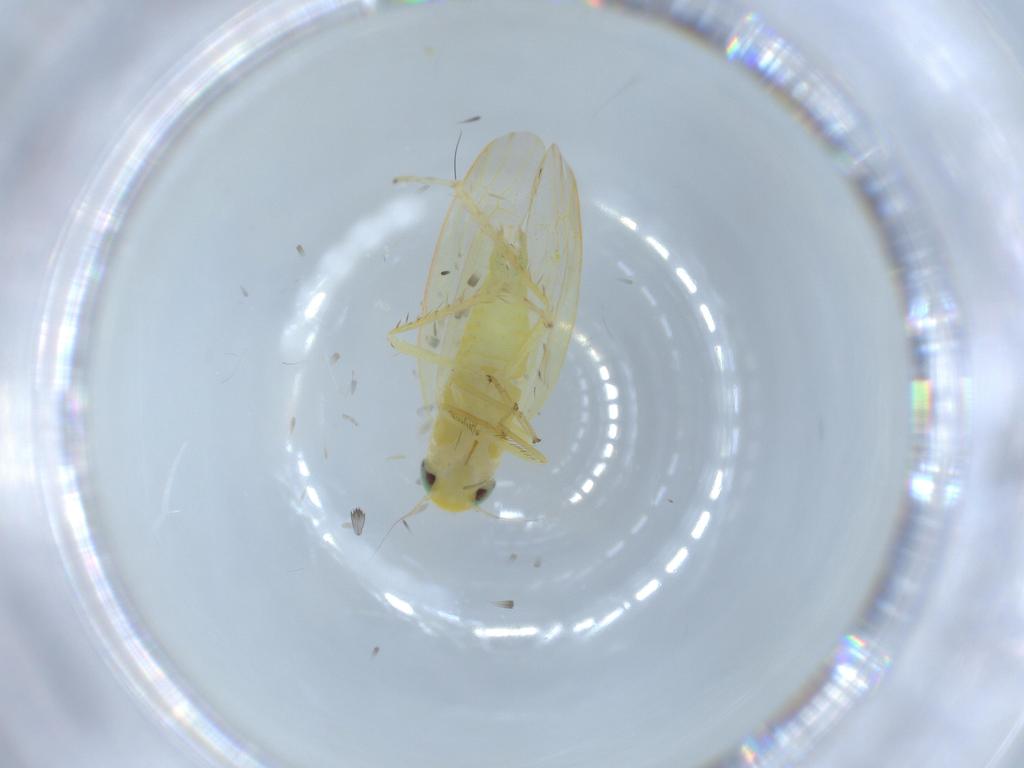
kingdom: Animalia
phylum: Arthropoda
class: Insecta
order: Hemiptera
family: Cicadellidae
